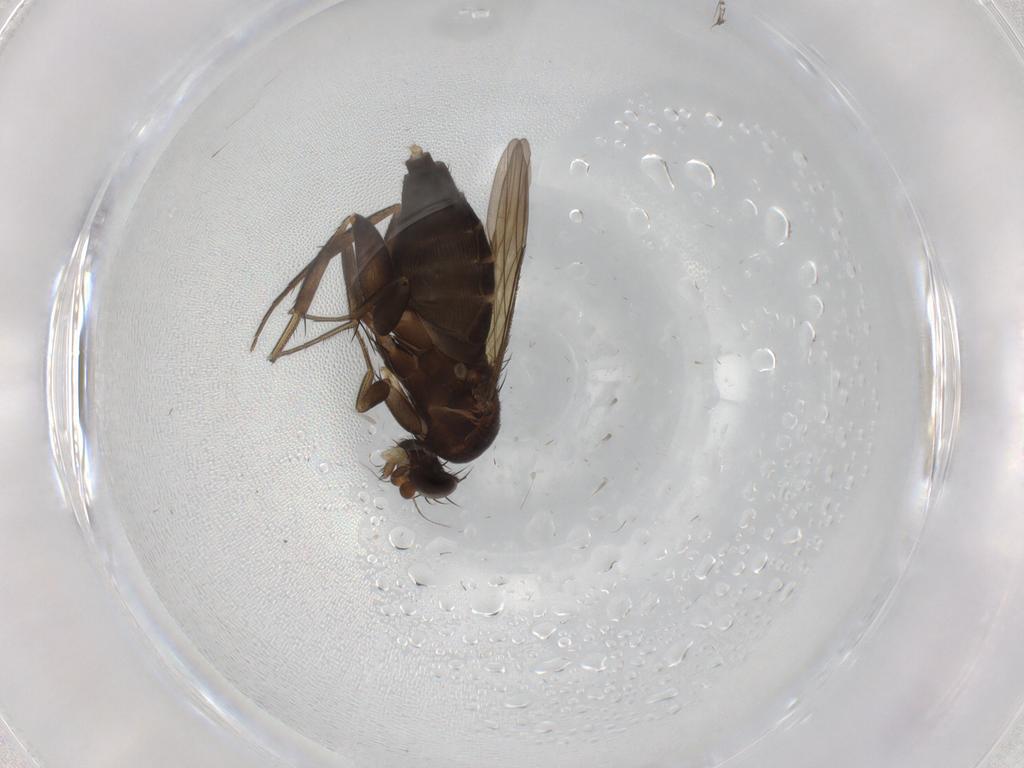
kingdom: Animalia
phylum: Arthropoda
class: Insecta
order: Diptera
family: Phoridae
